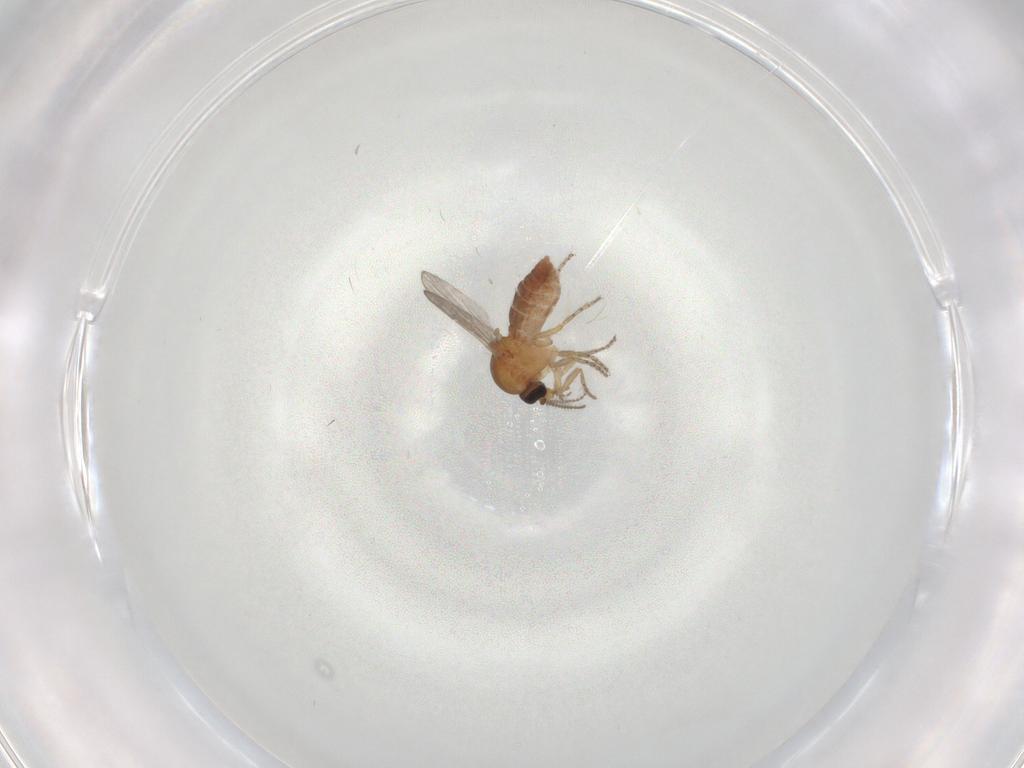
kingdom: Animalia
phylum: Arthropoda
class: Insecta
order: Diptera
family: Ceratopogonidae
